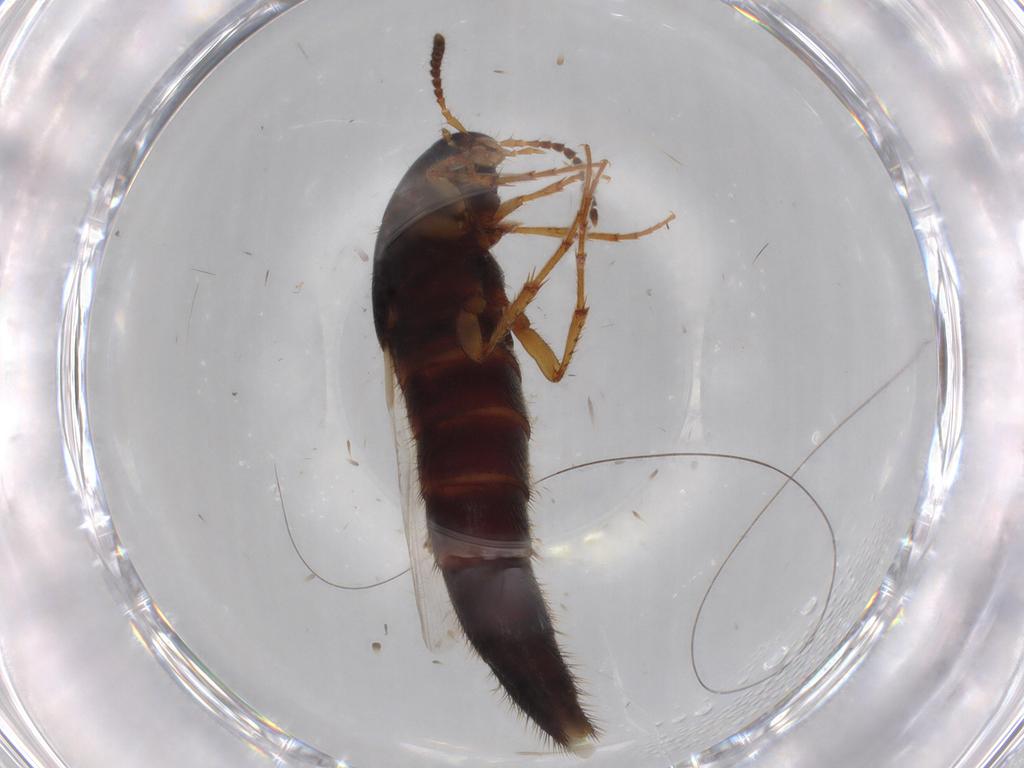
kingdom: Animalia
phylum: Arthropoda
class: Insecta
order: Coleoptera
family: Staphylinidae
